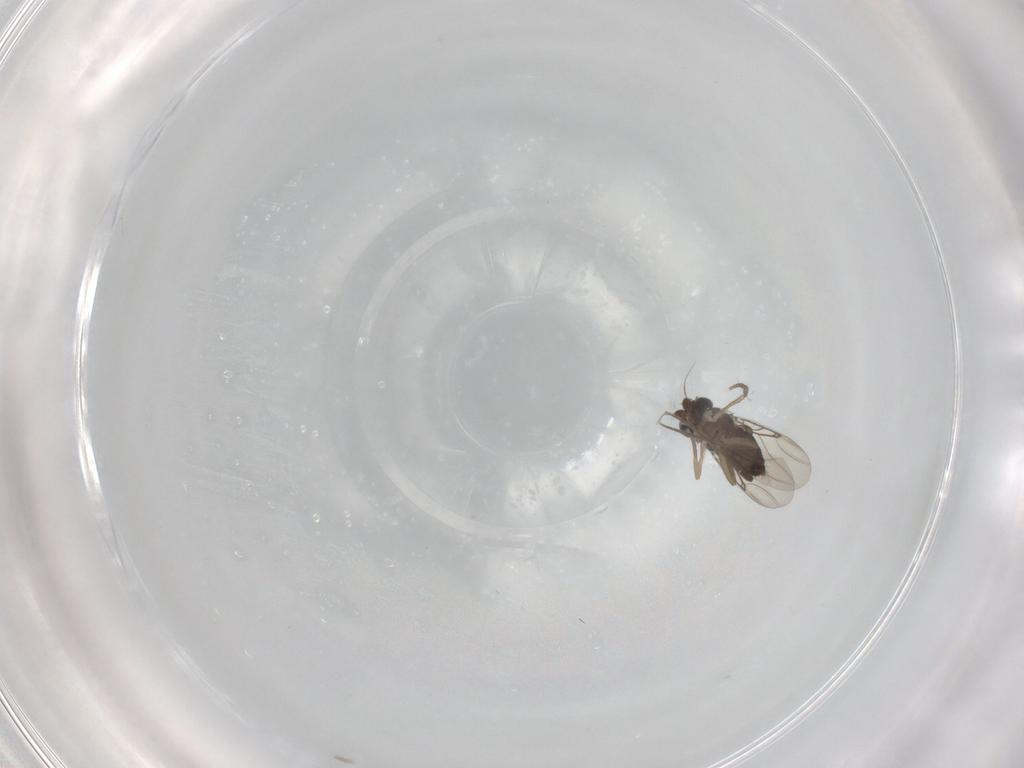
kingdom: Animalia
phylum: Arthropoda
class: Insecta
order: Diptera
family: Phoridae
